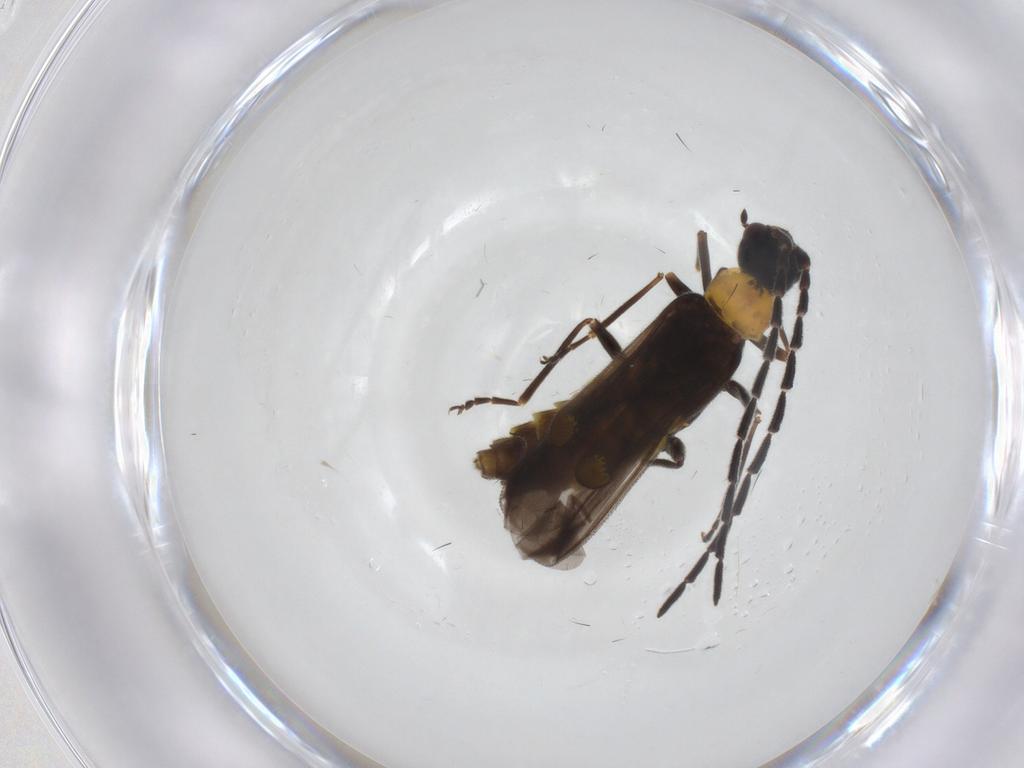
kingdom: Animalia
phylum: Arthropoda
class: Insecta
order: Coleoptera
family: Cantharidae
